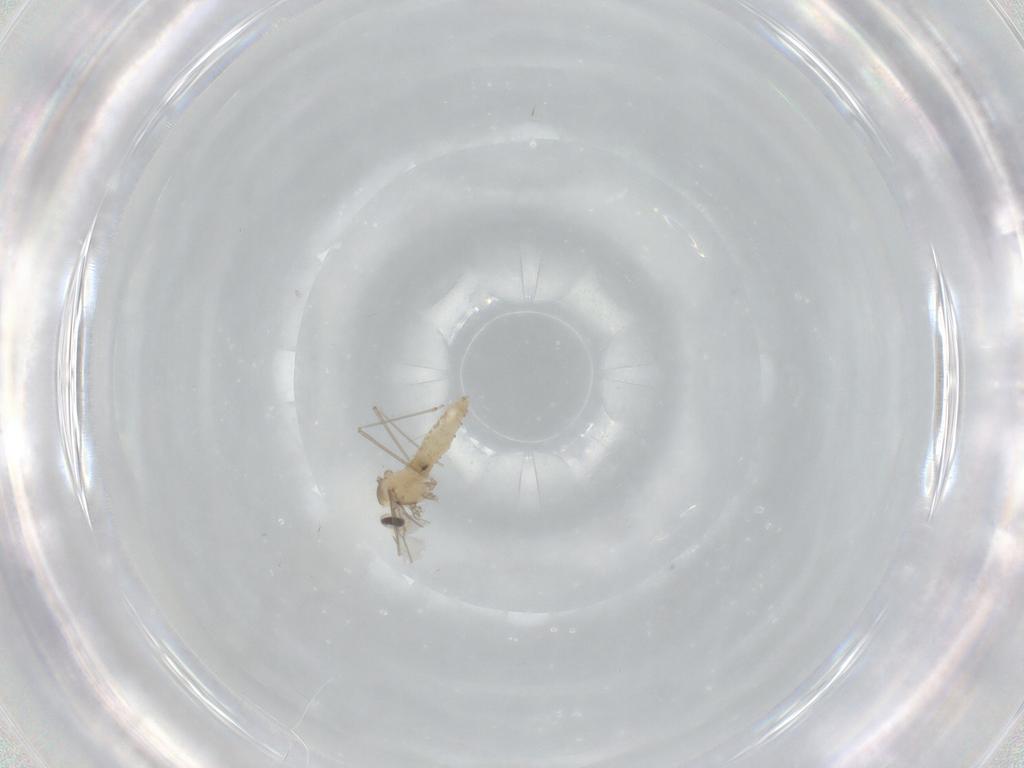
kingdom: Animalia
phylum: Arthropoda
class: Insecta
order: Diptera
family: Cecidomyiidae
